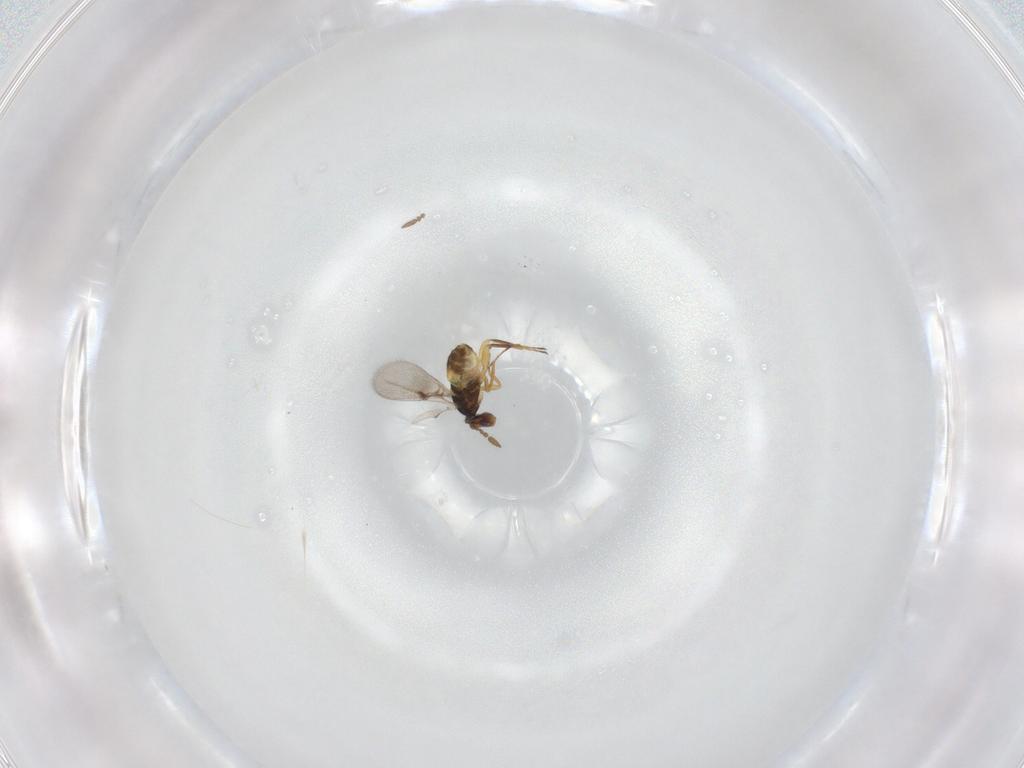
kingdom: Animalia
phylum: Arthropoda
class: Insecta
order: Hymenoptera
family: Eulophidae
